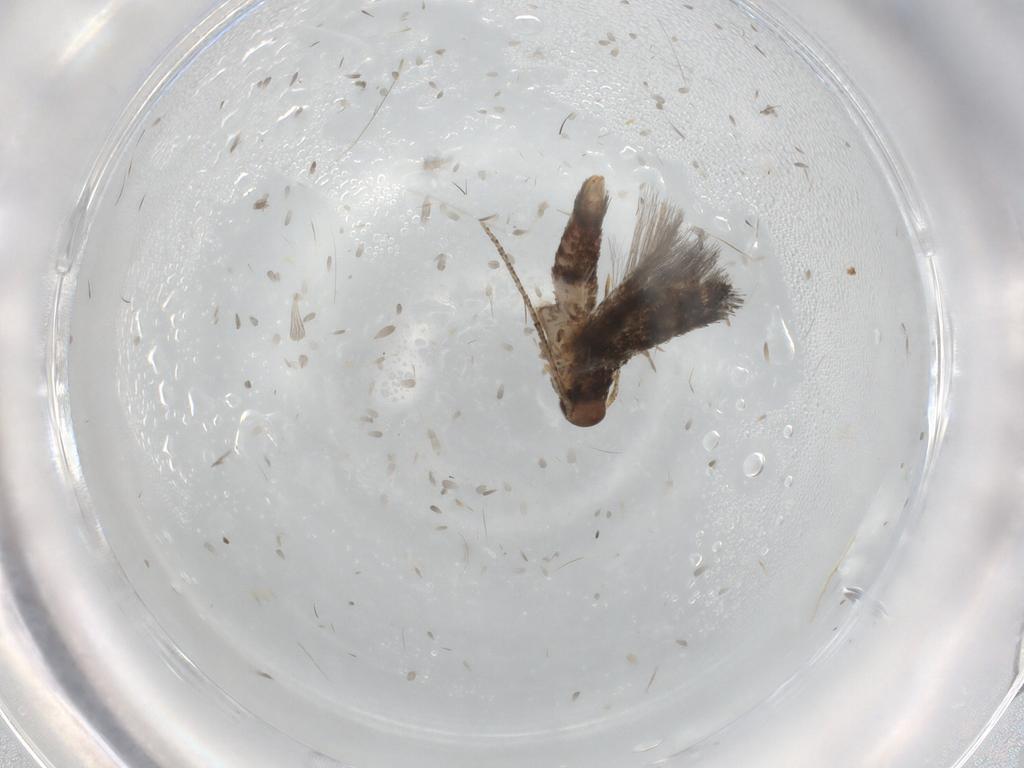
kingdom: Animalia
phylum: Arthropoda
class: Insecta
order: Lepidoptera
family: Erebidae
